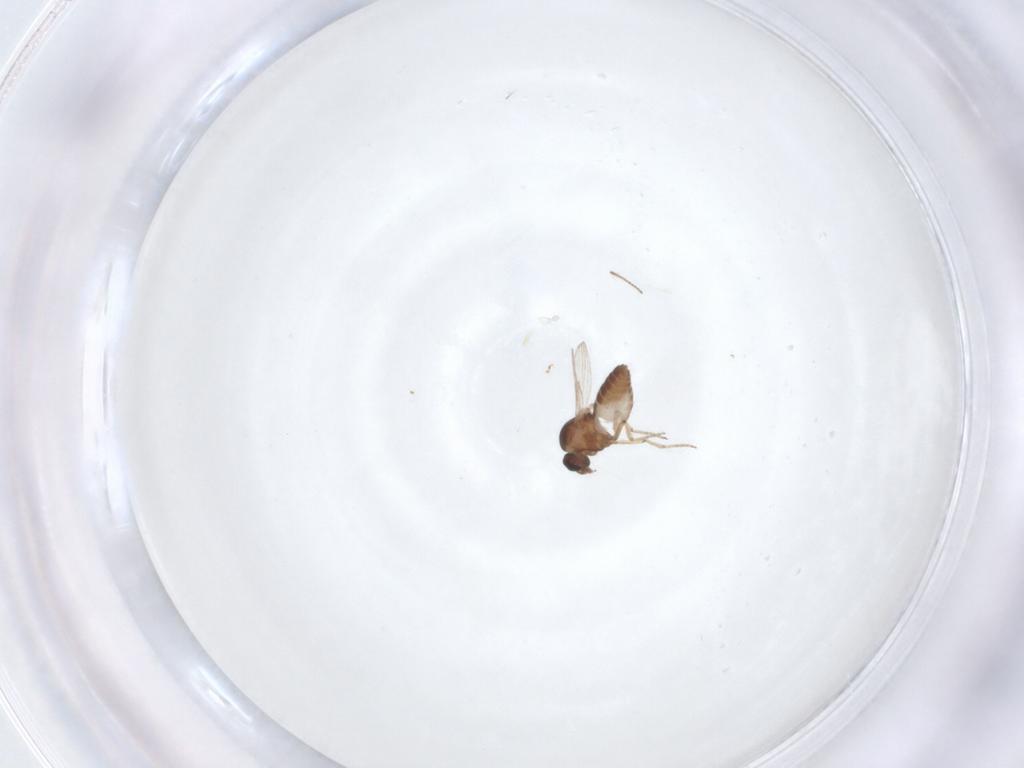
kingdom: Animalia
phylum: Arthropoda
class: Insecta
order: Diptera
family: Ceratopogonidae
